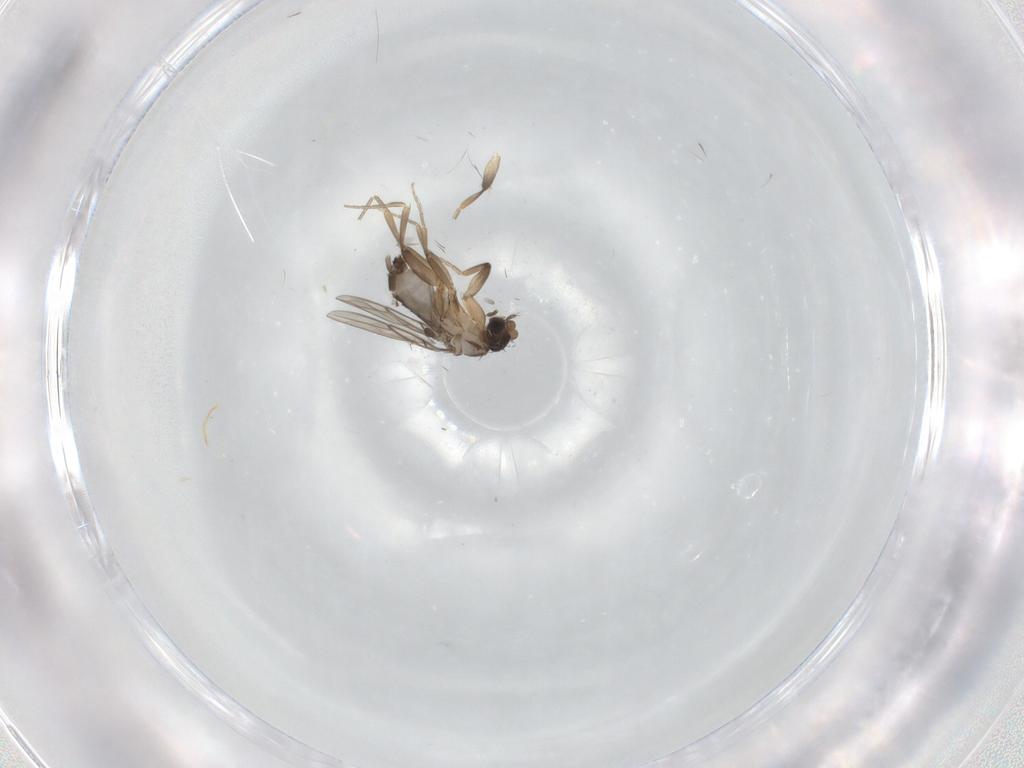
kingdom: Animalia
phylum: Arthropoda
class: Insecta
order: Diptera
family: Phoridae
